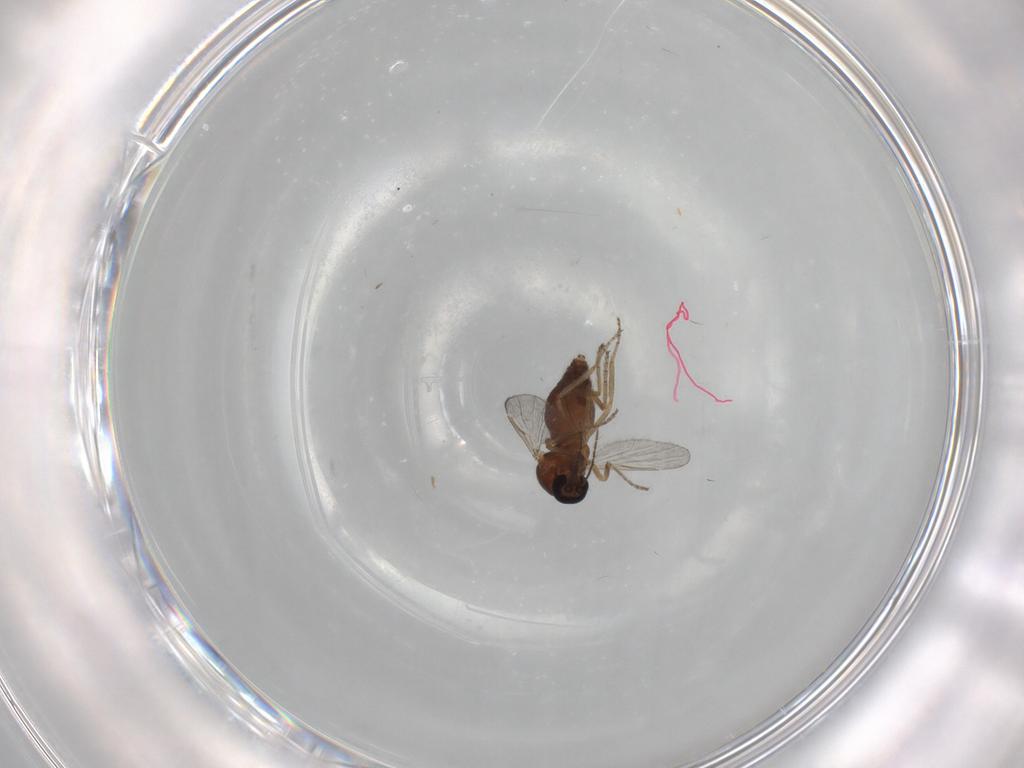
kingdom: Animalia
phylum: Arthropoda
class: Insecta
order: Diptera
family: Ceratopogonidae
